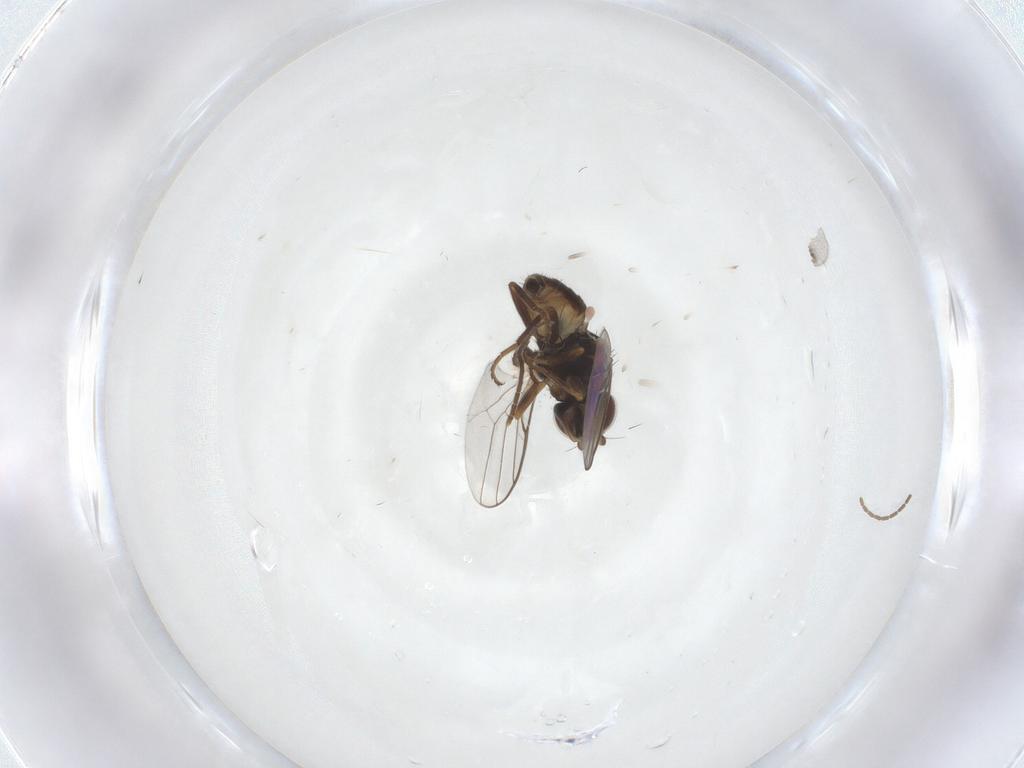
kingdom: Animalia
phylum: Arthropoda
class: Insecta
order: Diptera
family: Chloropidae
